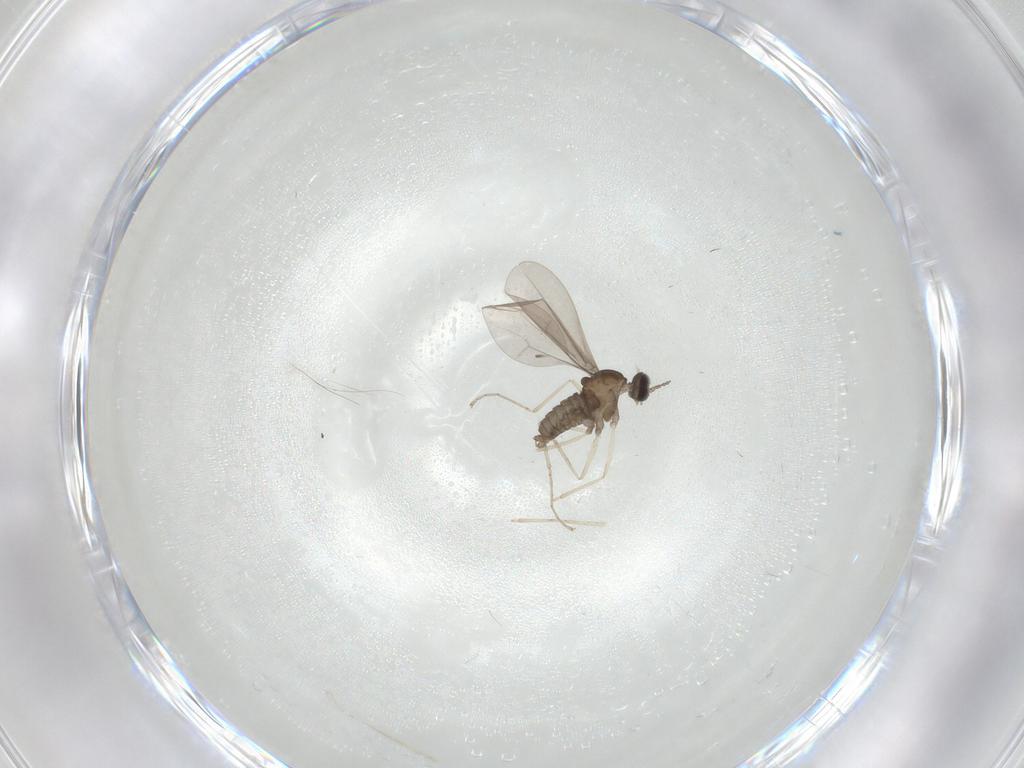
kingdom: Animalia
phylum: Arthropoda
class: Insecta
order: Diptera
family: Cecidomyiidae
